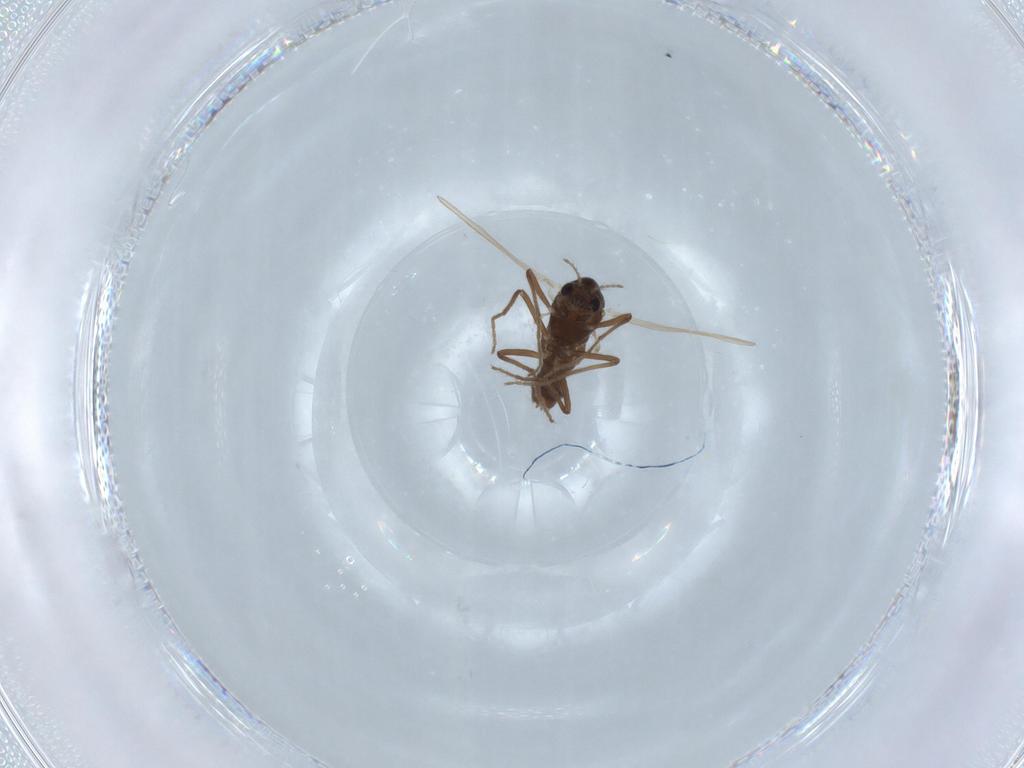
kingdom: Animalia
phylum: Arthropoda
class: Insecta
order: Diptera
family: Chironomidae
